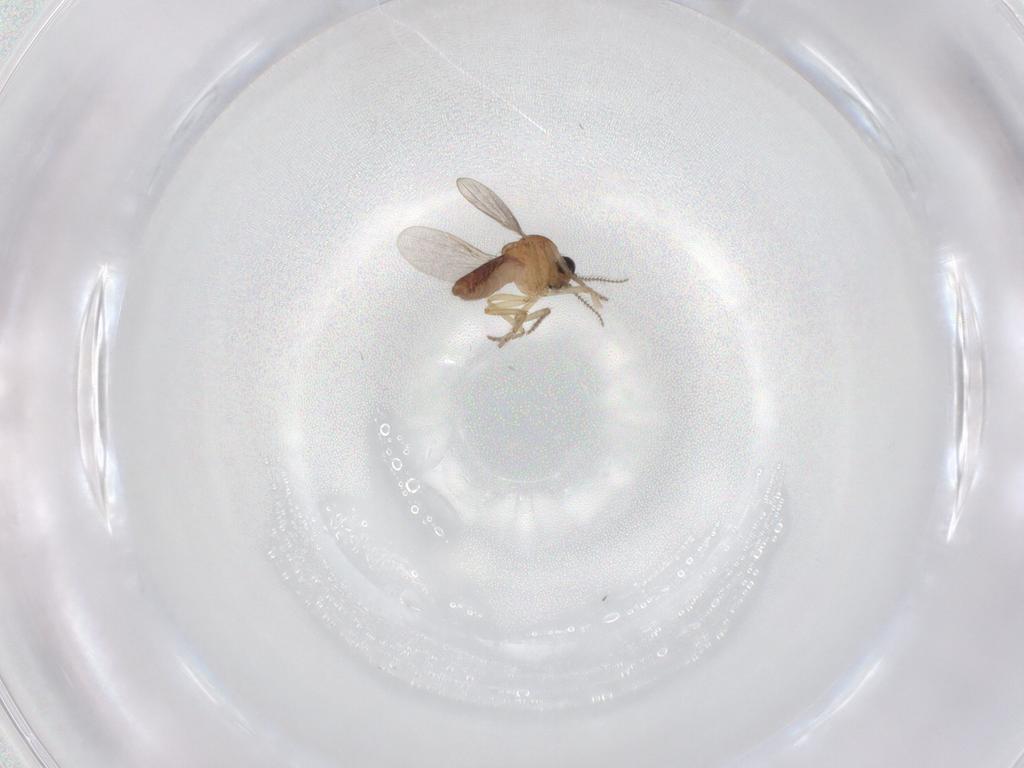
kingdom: Animalia
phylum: Arthropoda
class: Insecta
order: Diptera
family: Ceratopogonidae
